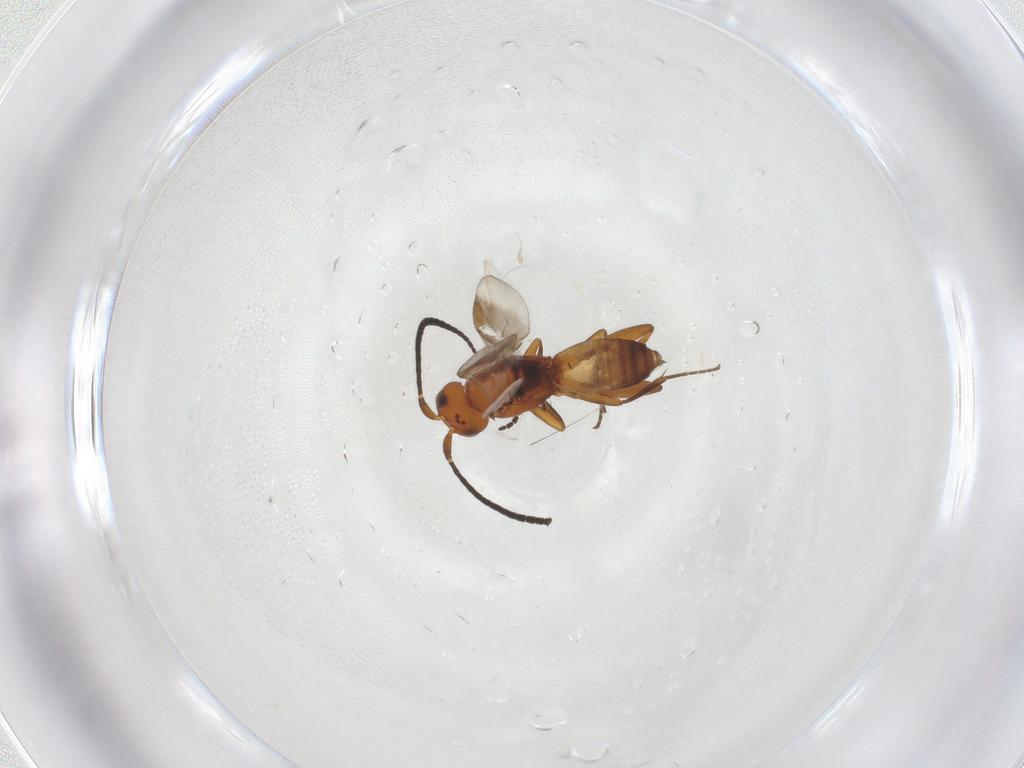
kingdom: Animalia
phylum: Arthropoda
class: Insecta
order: Hymenoptera
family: Braconidae
